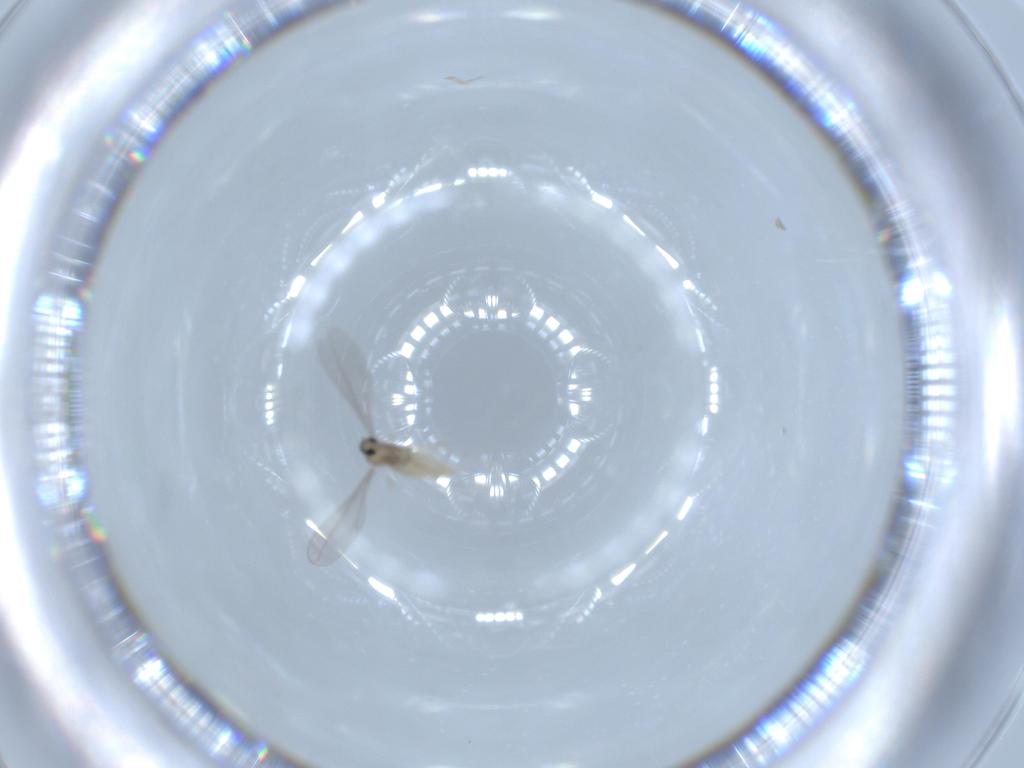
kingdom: Animalia
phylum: Arthropoda
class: Insecta
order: Diptera
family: Cecidomyiidae
